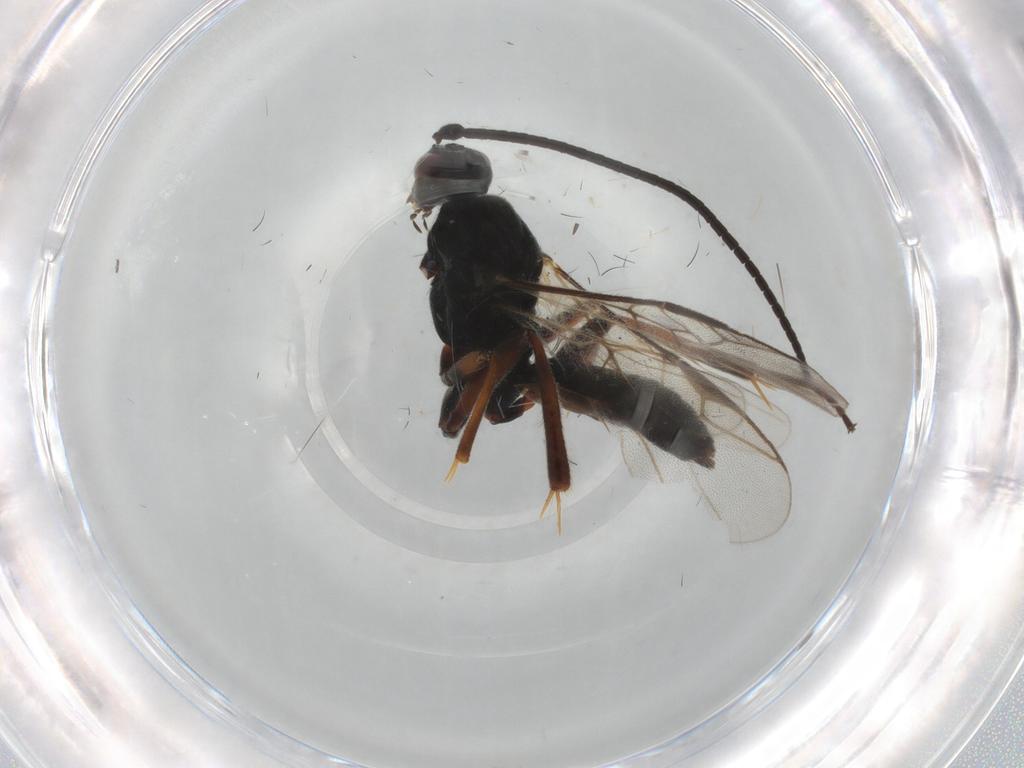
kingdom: Animalia
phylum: Arthropoda
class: Insecta
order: Hymenoptera
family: Braconidae
